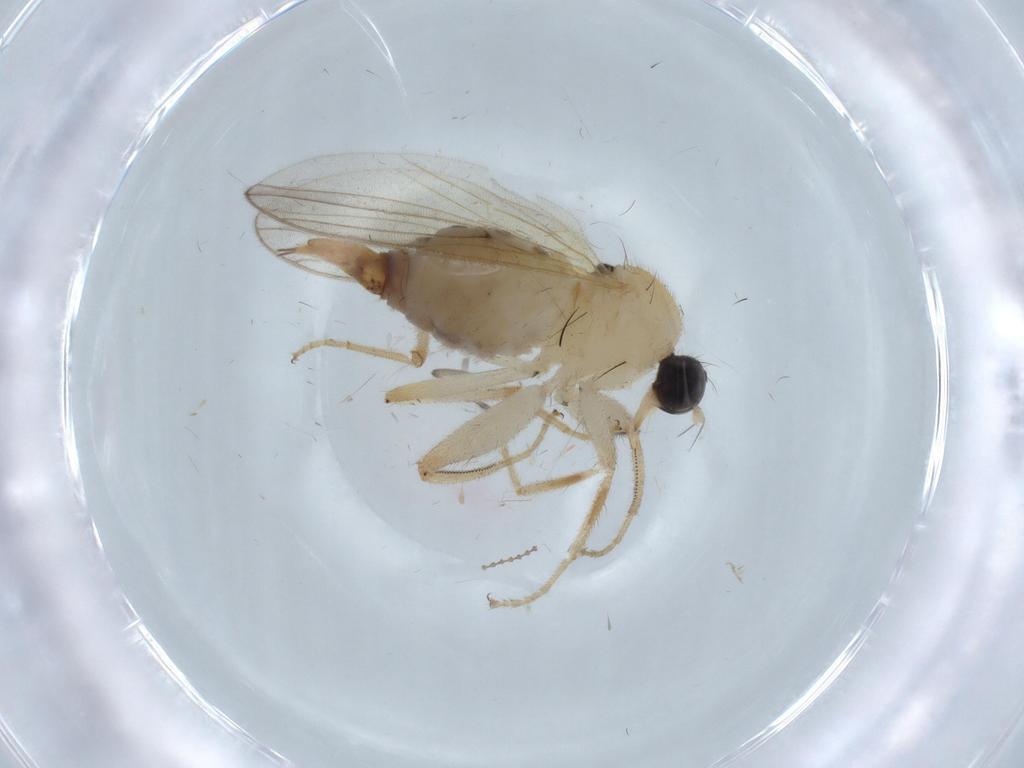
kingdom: Animalia
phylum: Arthropoda
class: Insecta
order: Diptera
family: Hybotidae
